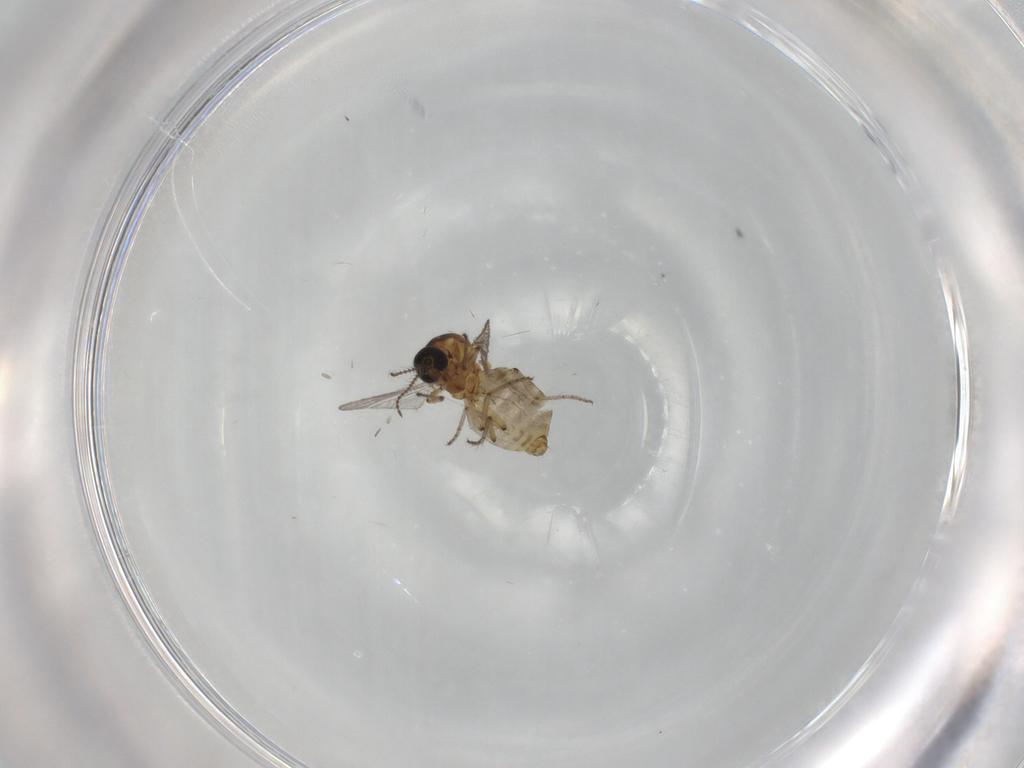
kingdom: Animalia
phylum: Arthropoda
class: Insecta
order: Diptera
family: Ceratopogonidae
